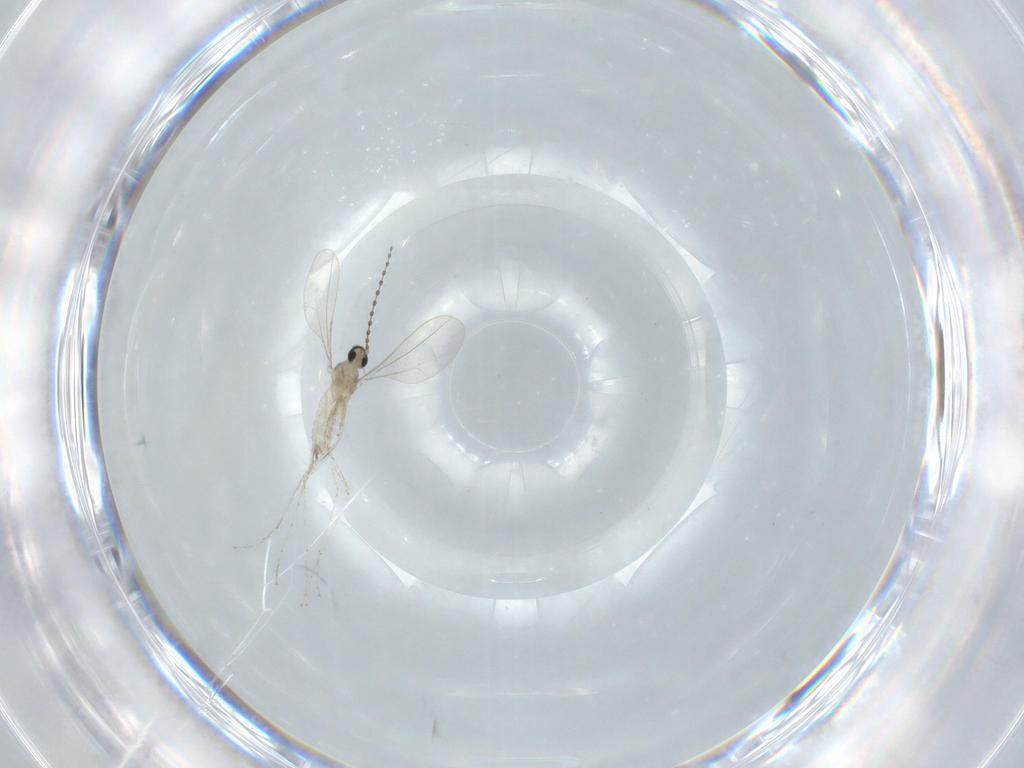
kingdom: Animalia
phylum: Arthropoda
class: Insecta
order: Diptera
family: Cecidomyiidae
